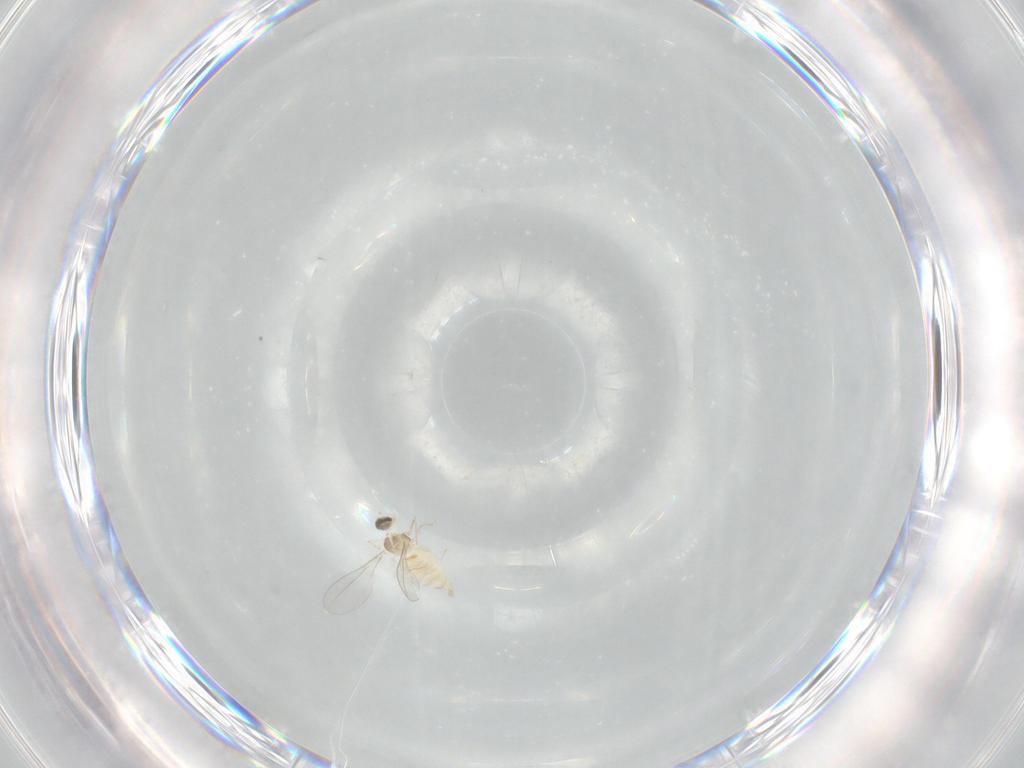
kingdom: Animalia
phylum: Arthropoda
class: Insecta
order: Diptera
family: Cecidomyiidae
